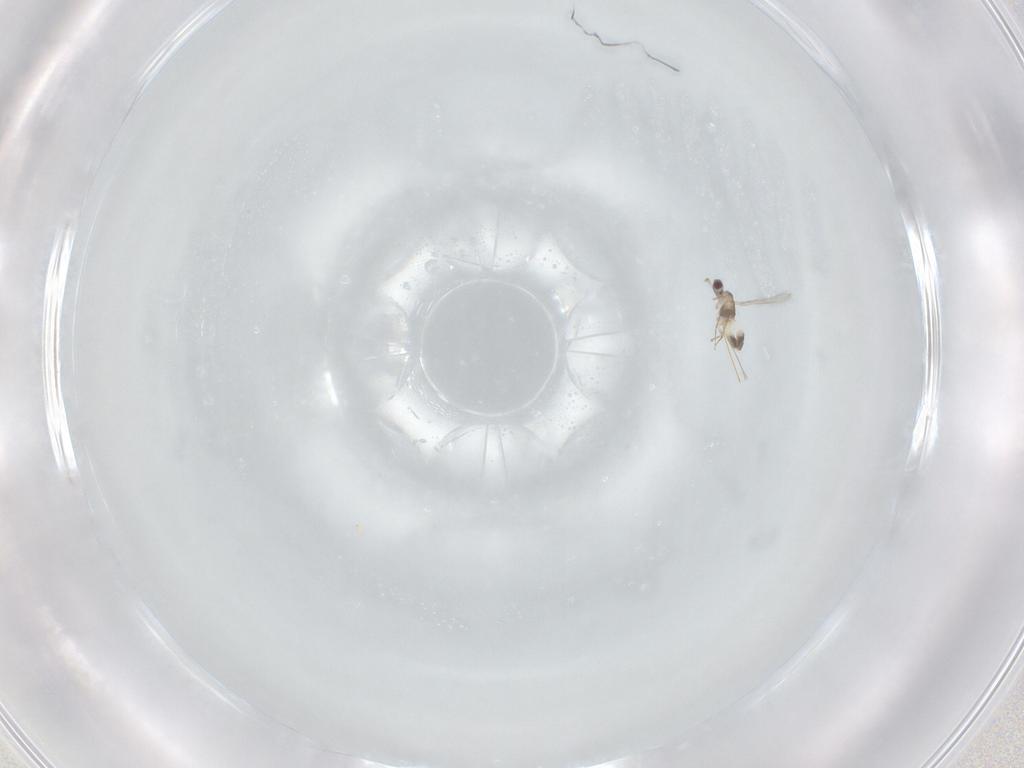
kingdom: Animalia
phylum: Arthropoda
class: Insecta
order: Hymenoptera
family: Mymaridae
